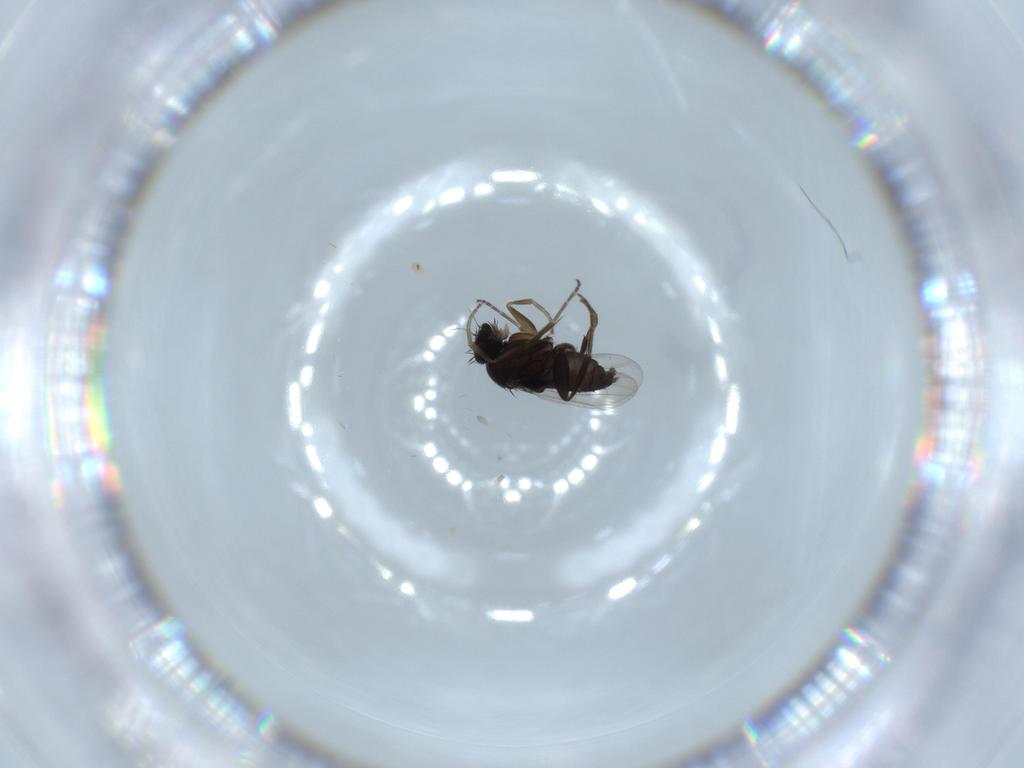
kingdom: Animalia
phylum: Arthropoda
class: Insecta
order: Diptera
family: Phoridae
